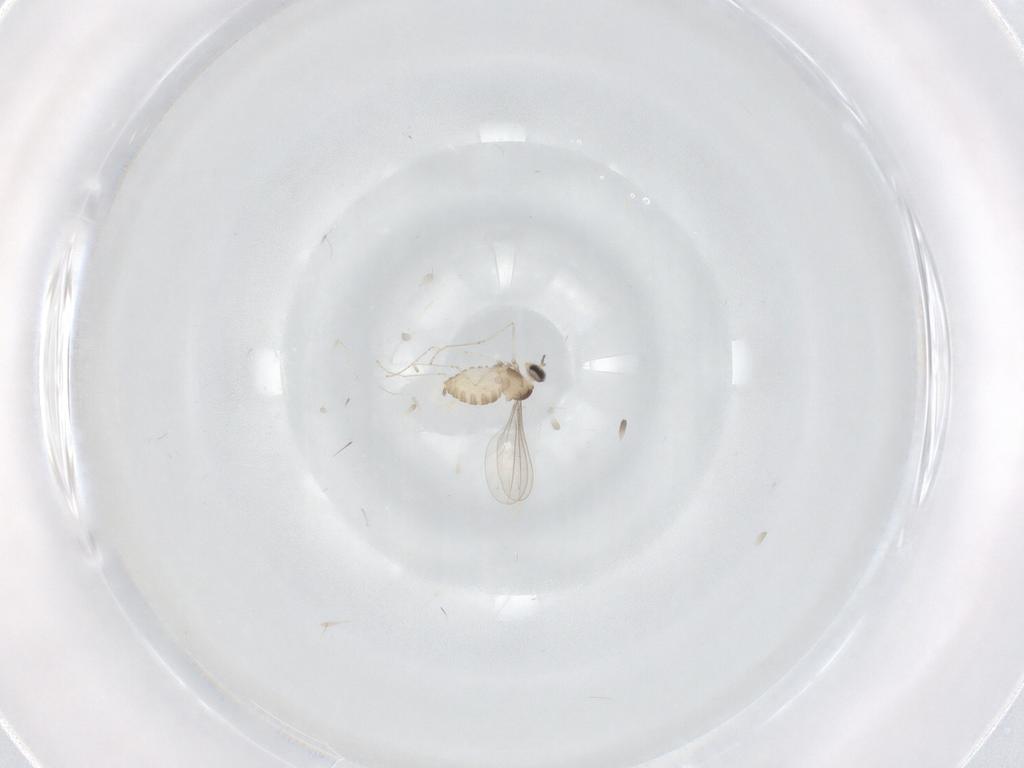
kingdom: Animalia
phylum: Arthropoda
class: Insecta
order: Diptera
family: Cecidomyiidae
